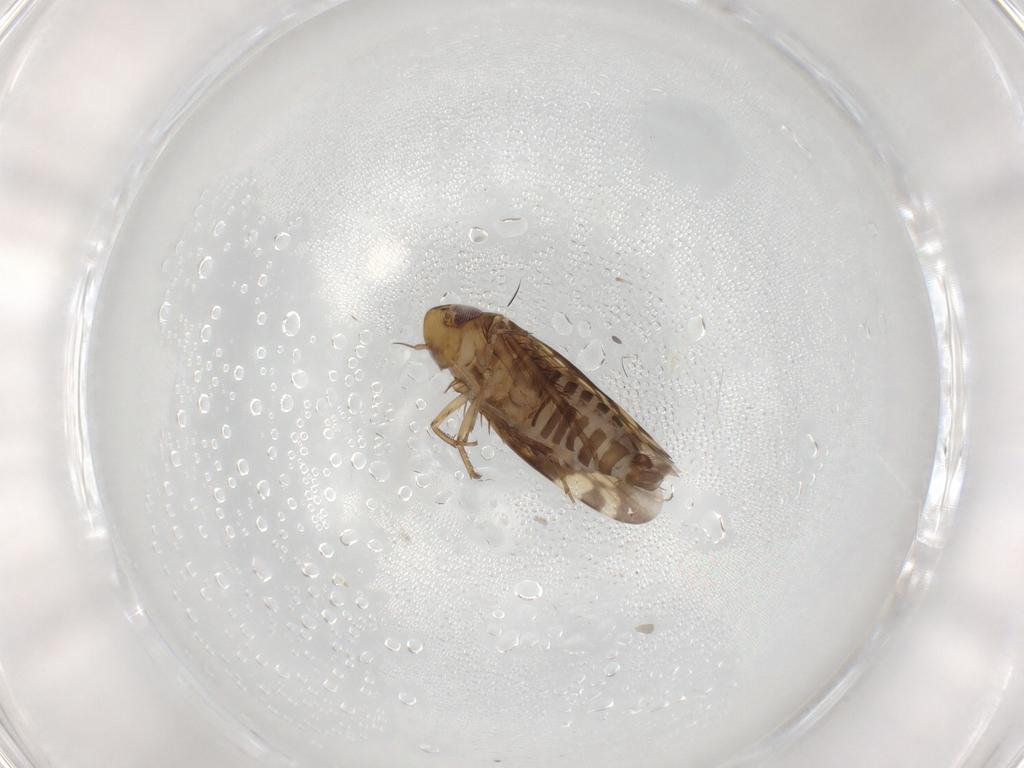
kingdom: Animalia
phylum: Arthropoda
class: Insecta
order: Hemiptera
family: Cicadellidae
